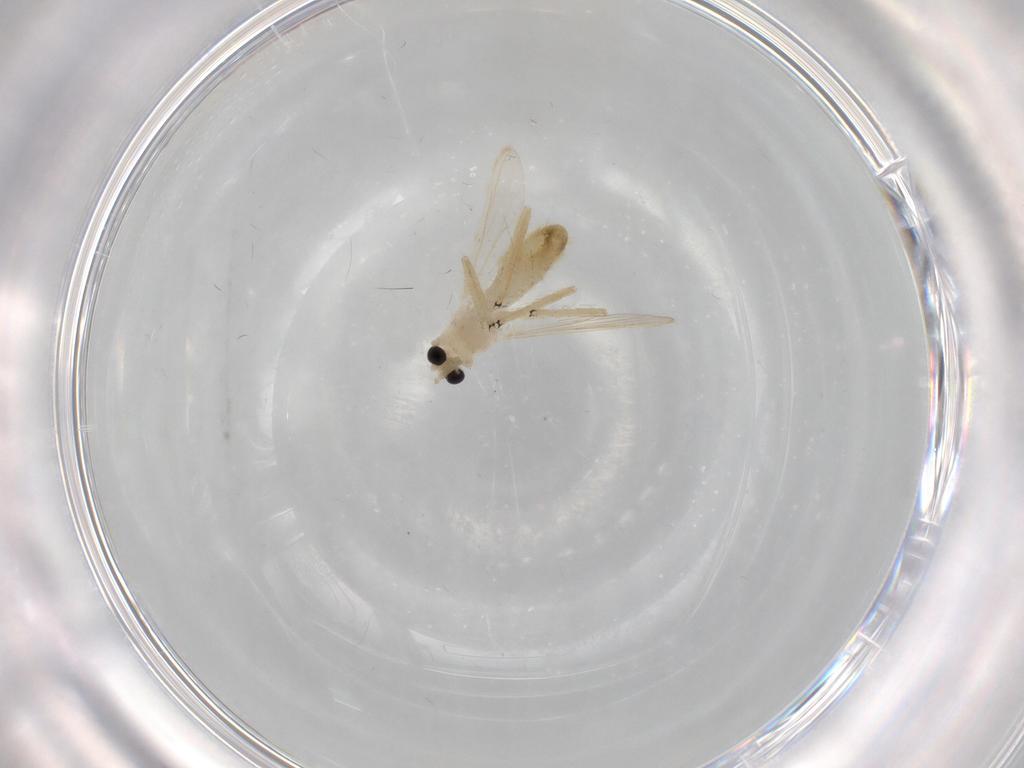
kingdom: Animalia
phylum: Arthropoda
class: Insecta
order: Diptera
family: Chironomidae
